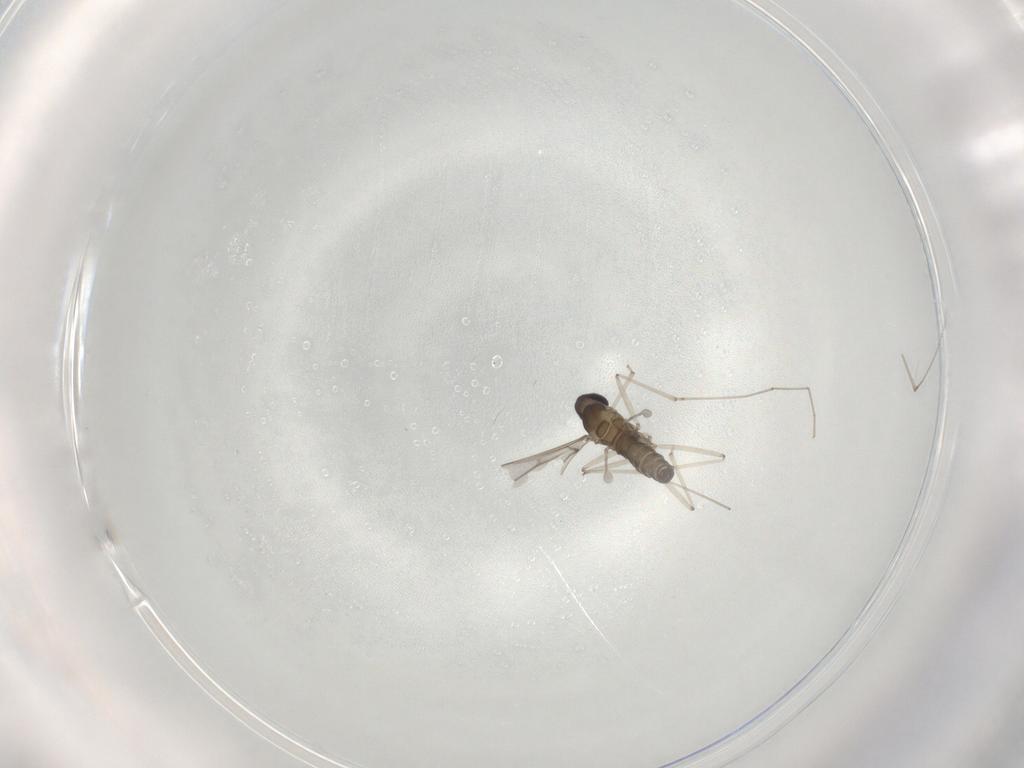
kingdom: Animalia
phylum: Arthropoda
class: Insecta
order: Diptera
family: Cecidomyiidae
